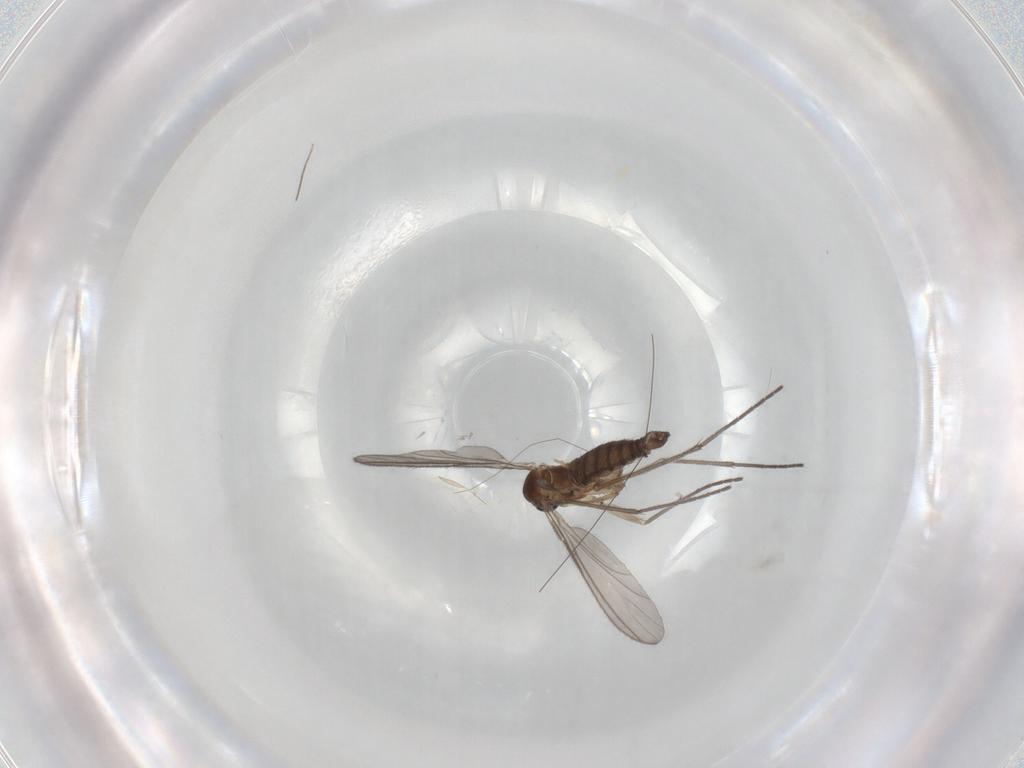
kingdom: Animalia
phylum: Arthropoda
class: Insecta
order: Diptera
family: Sciaridae
